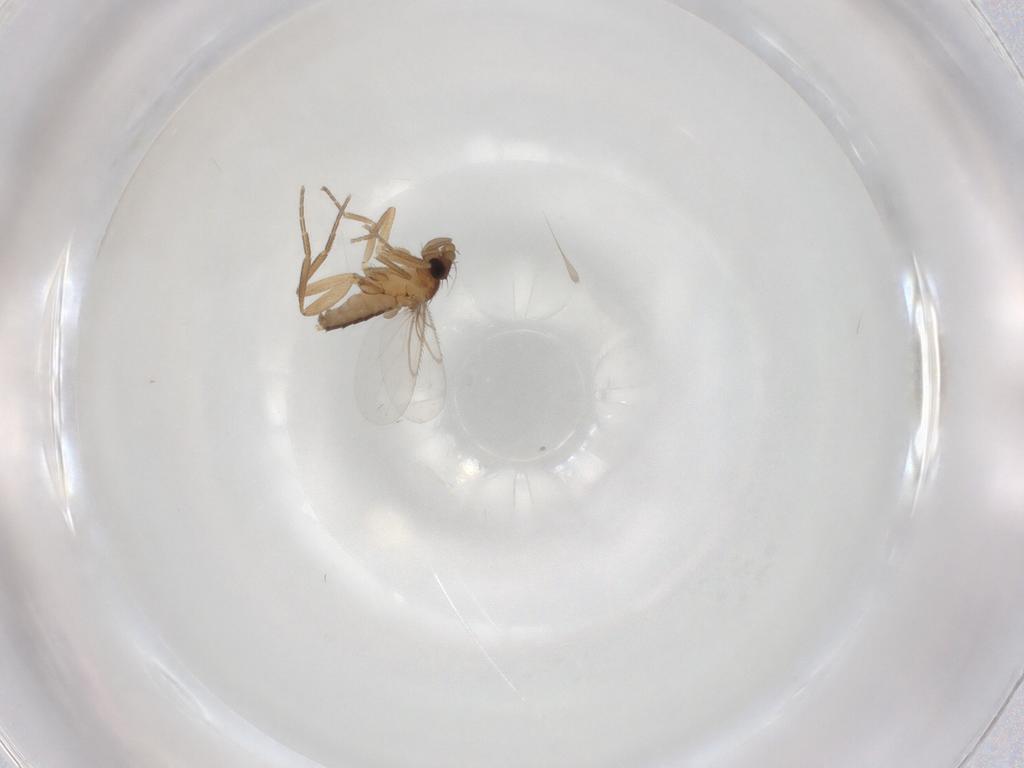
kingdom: Animalia
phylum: Arthropoda
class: Insecta
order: Diptera
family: Phoridae
